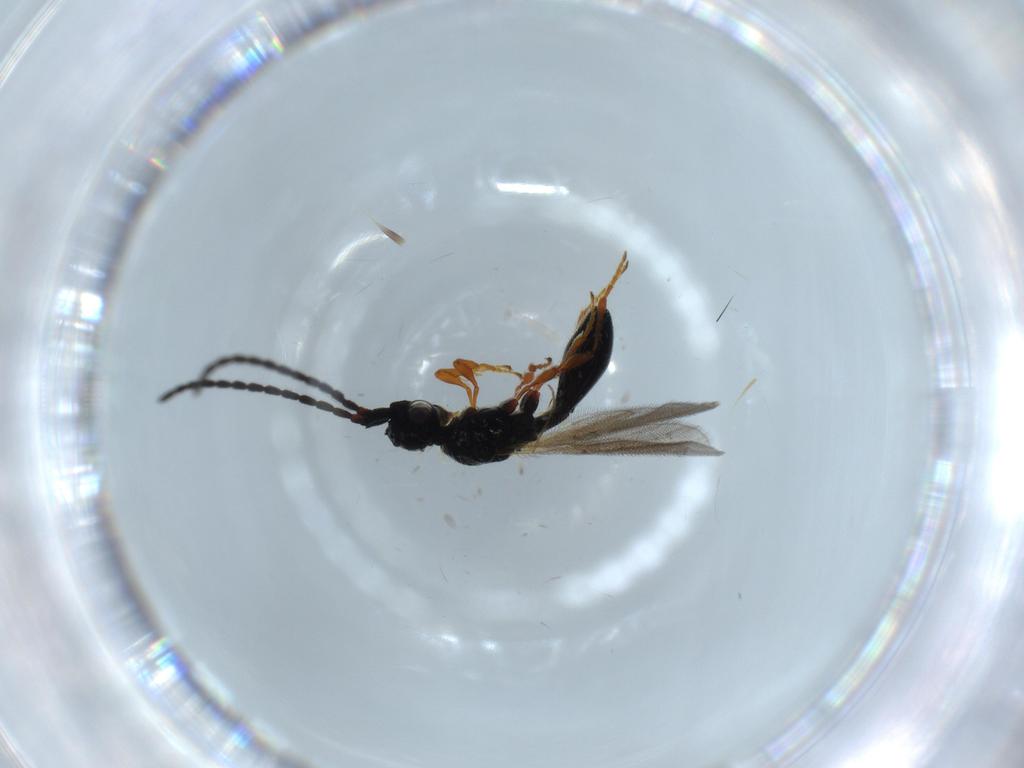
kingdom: Animalia
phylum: Arthropoda
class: Insecta
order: Hymenoptera
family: Diapriidae
